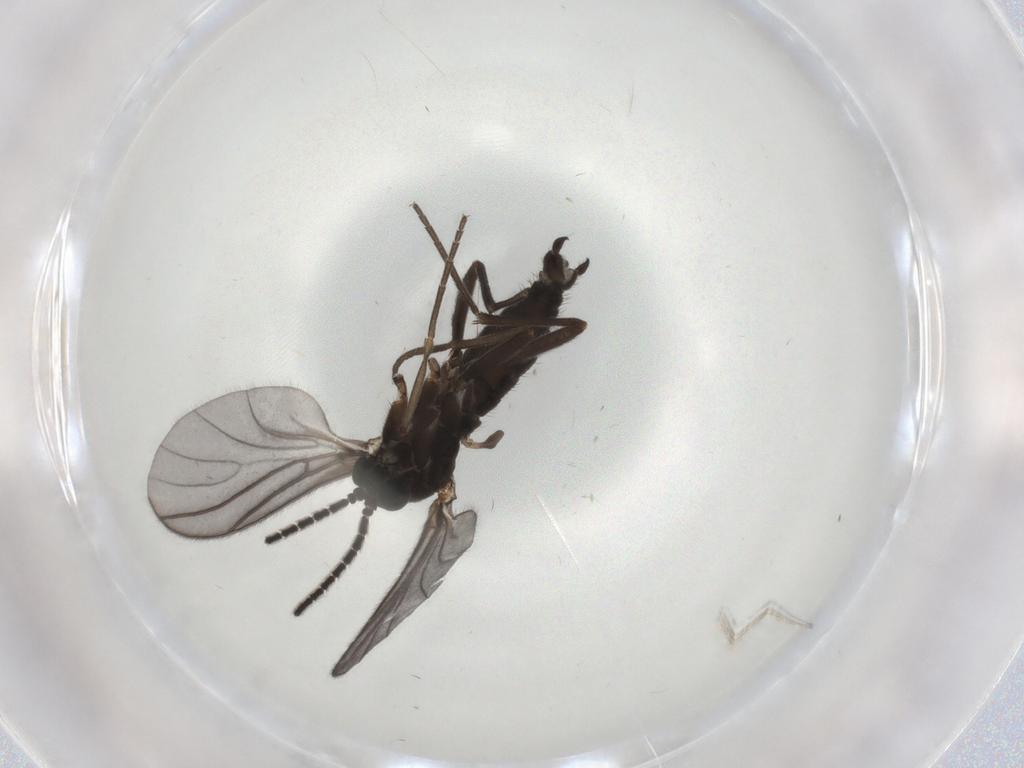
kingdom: Animalia
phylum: Arthropoda
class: Insecta
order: Diptera
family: Sciaridae
